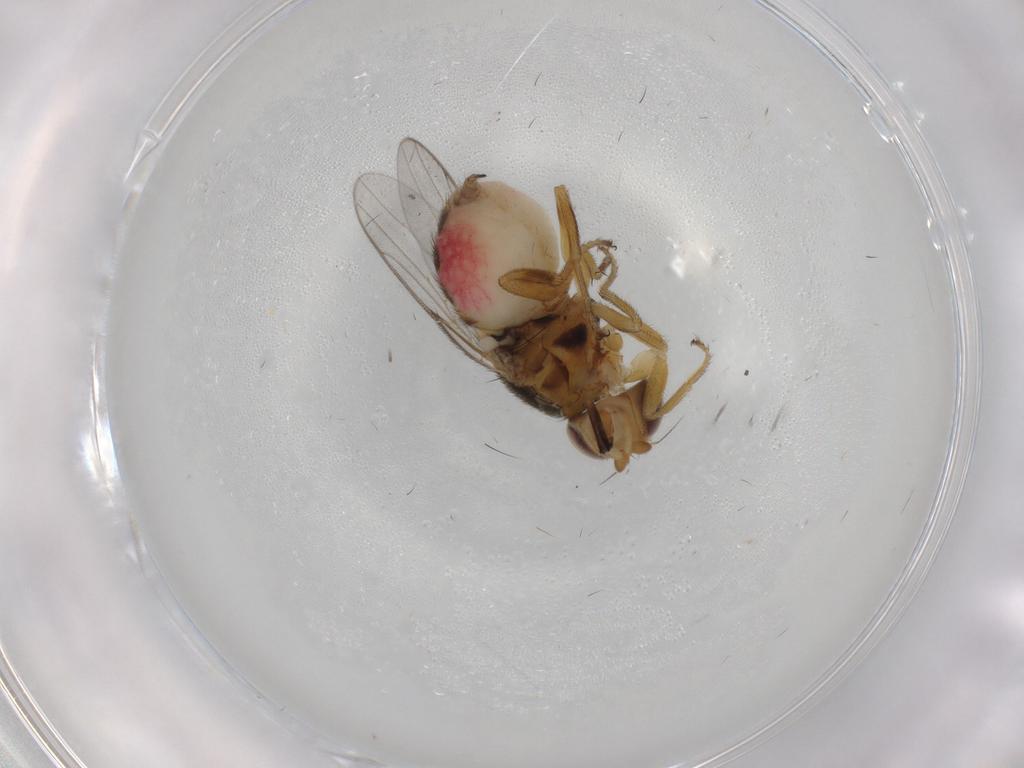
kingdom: Animalia
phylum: Arthropoda
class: Insecta
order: Diptera
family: Chloropidae
